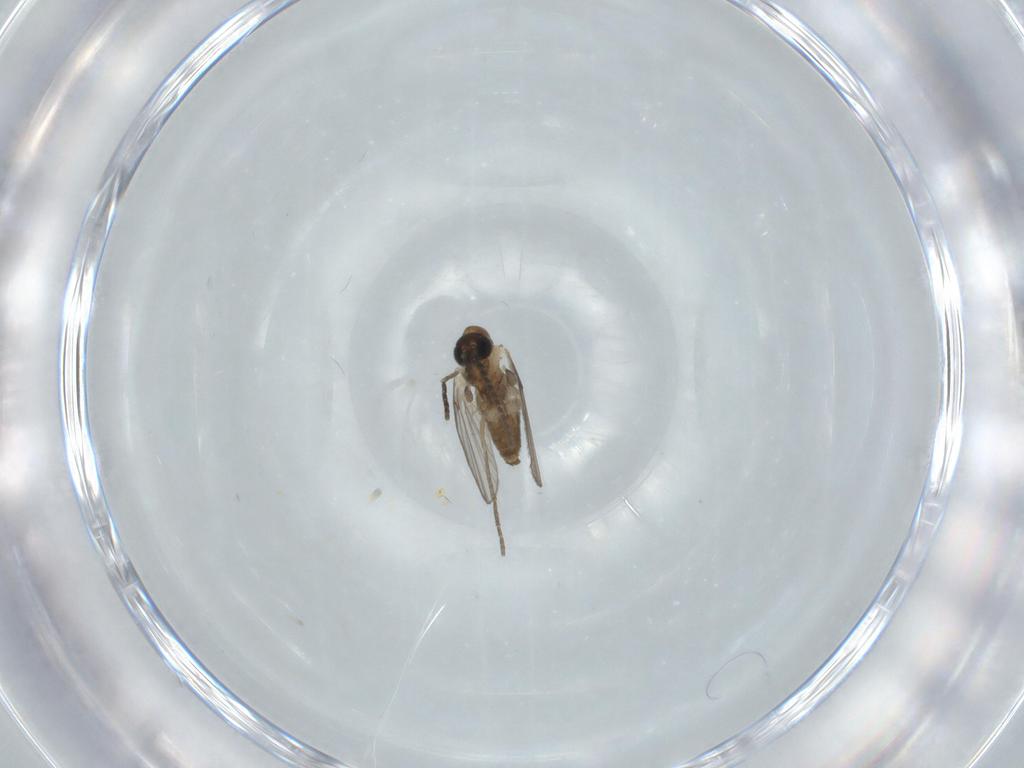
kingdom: Animalia
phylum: Arthropoda
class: Insecta
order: Diptera
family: Ceratopogonidae
